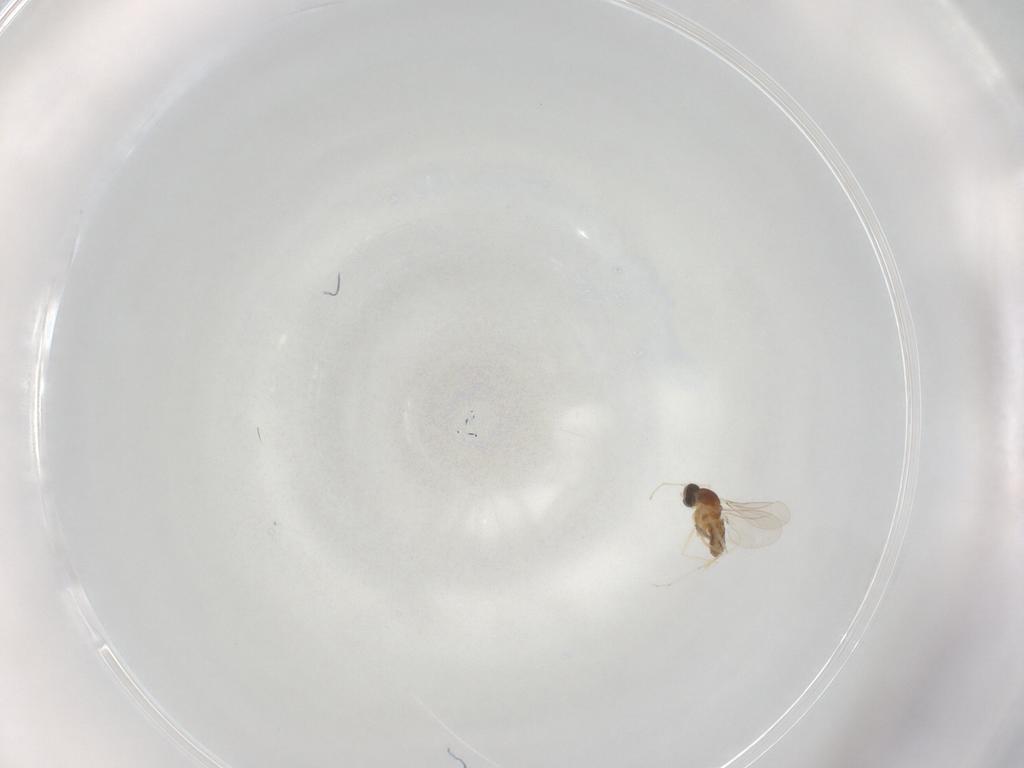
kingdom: Animalia
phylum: Arthropoda
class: Insecta
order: Diptera
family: Cecidomyiidae
